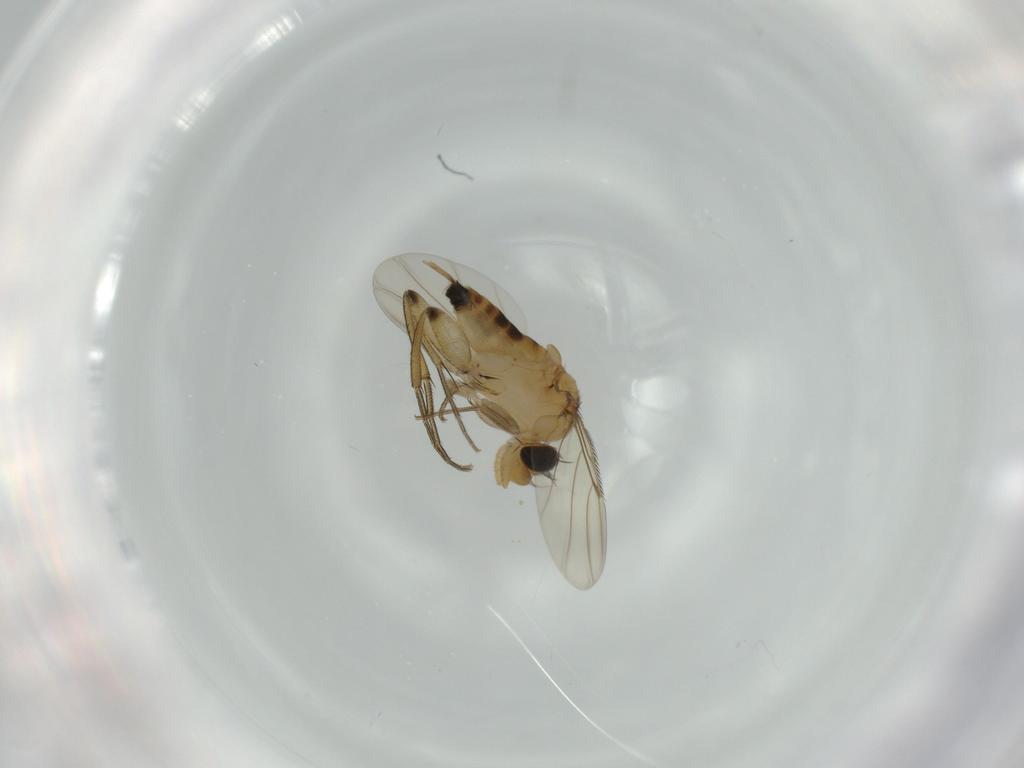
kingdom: Animalia
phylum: Arthropoda
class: Insecta
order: Diptera
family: Phoridae
